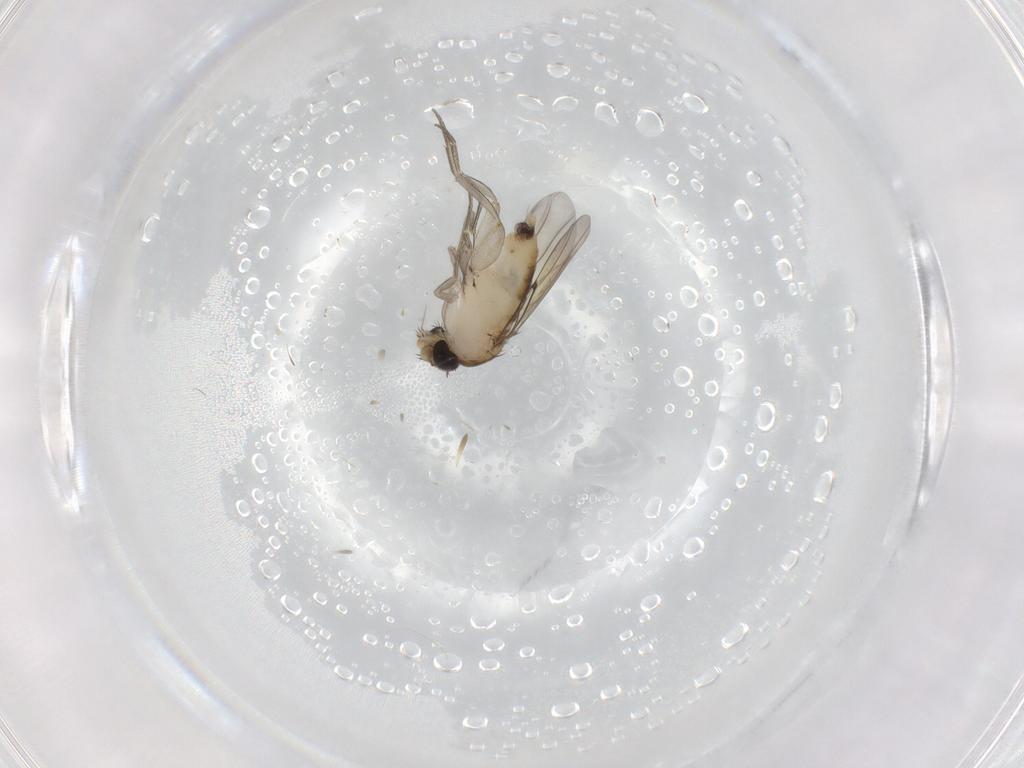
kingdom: Animalia
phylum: Arthropoda
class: Insecta
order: Diptera
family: Phoridae
